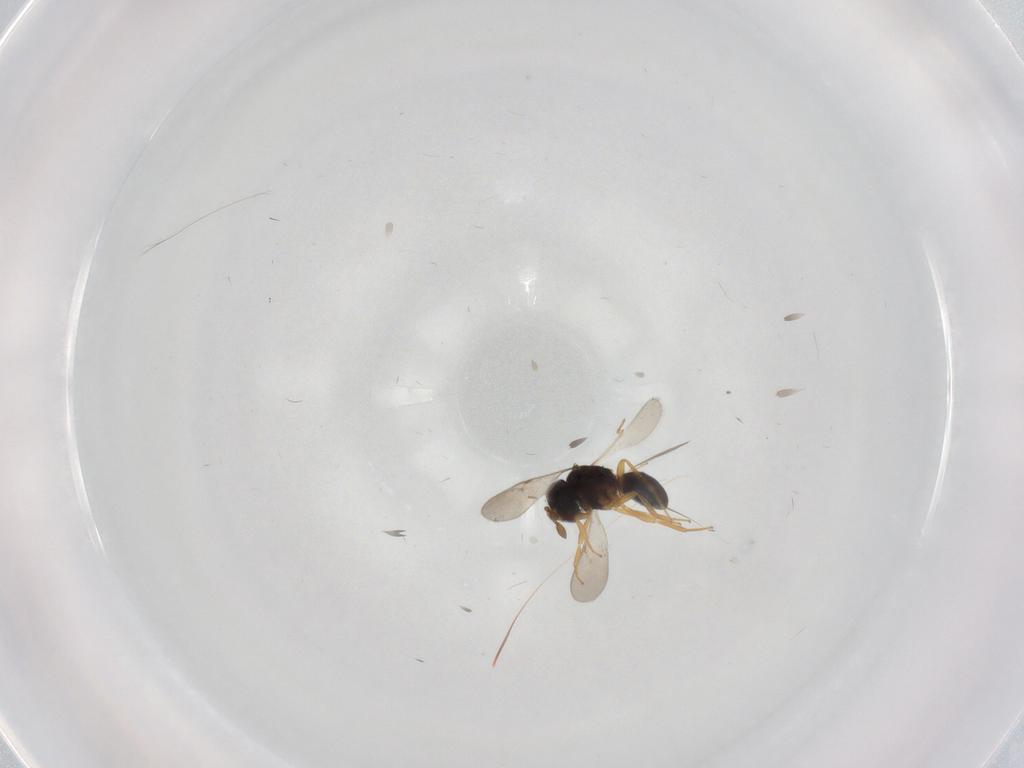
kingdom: Animalia
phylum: Arthropoda
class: Insecta
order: Hymenoptera
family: Scelionidae
